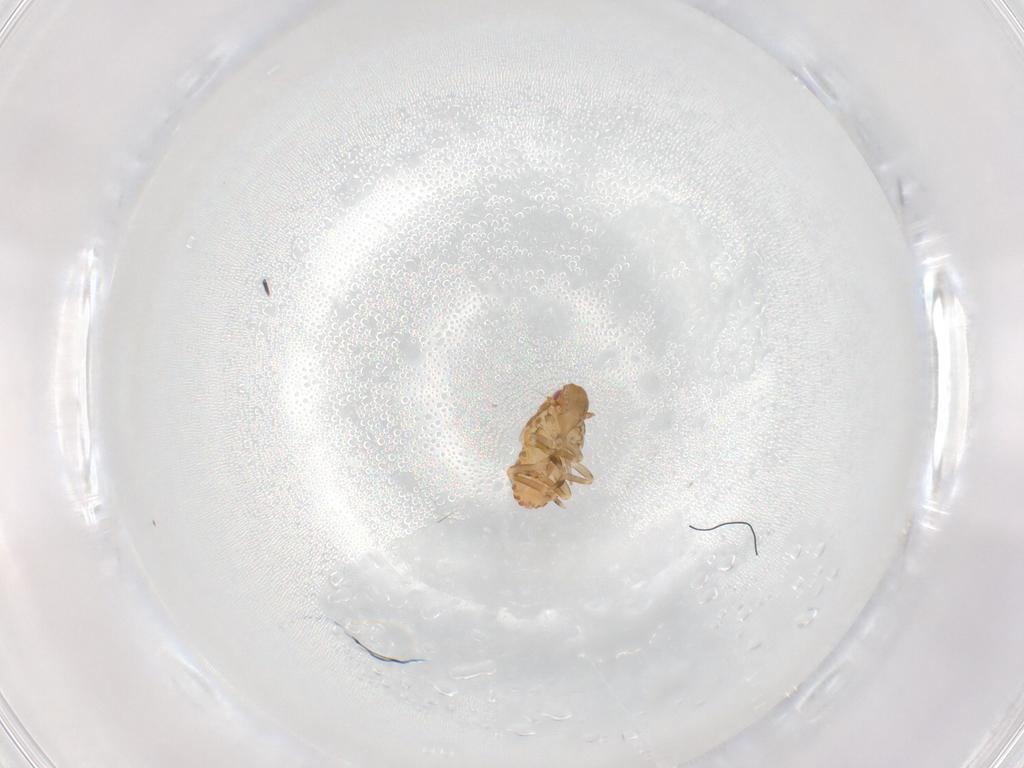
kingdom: Animalia
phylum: Arthropoda
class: Insecta
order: Hemiptera
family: Flatidae
